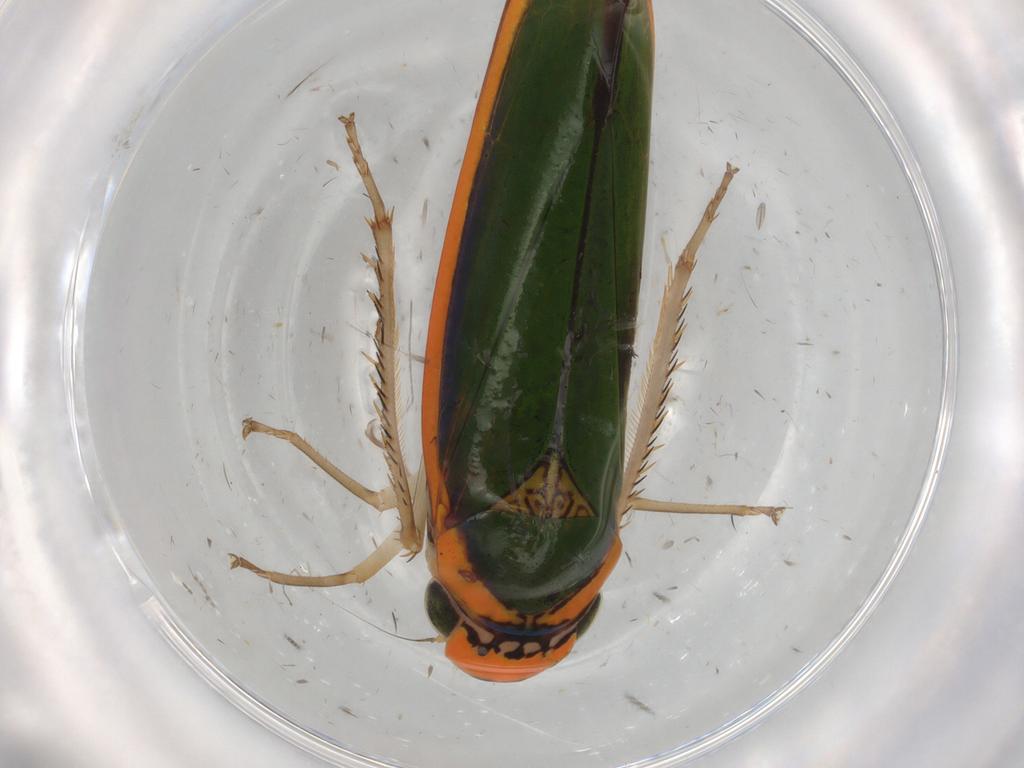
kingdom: Animalia
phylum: Arthropoda
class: Insecta
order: Hemiptera
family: Cicadellidae
